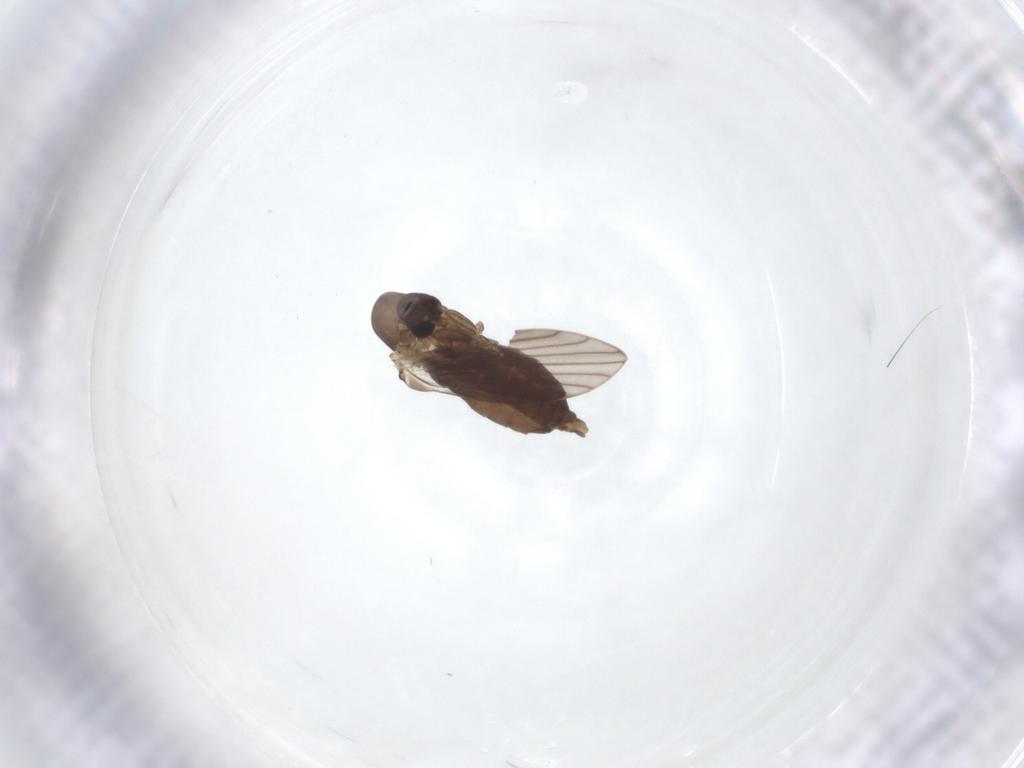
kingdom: Animalia
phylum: Arthropoda
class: Insecta
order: Diptera
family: Psychodidae
